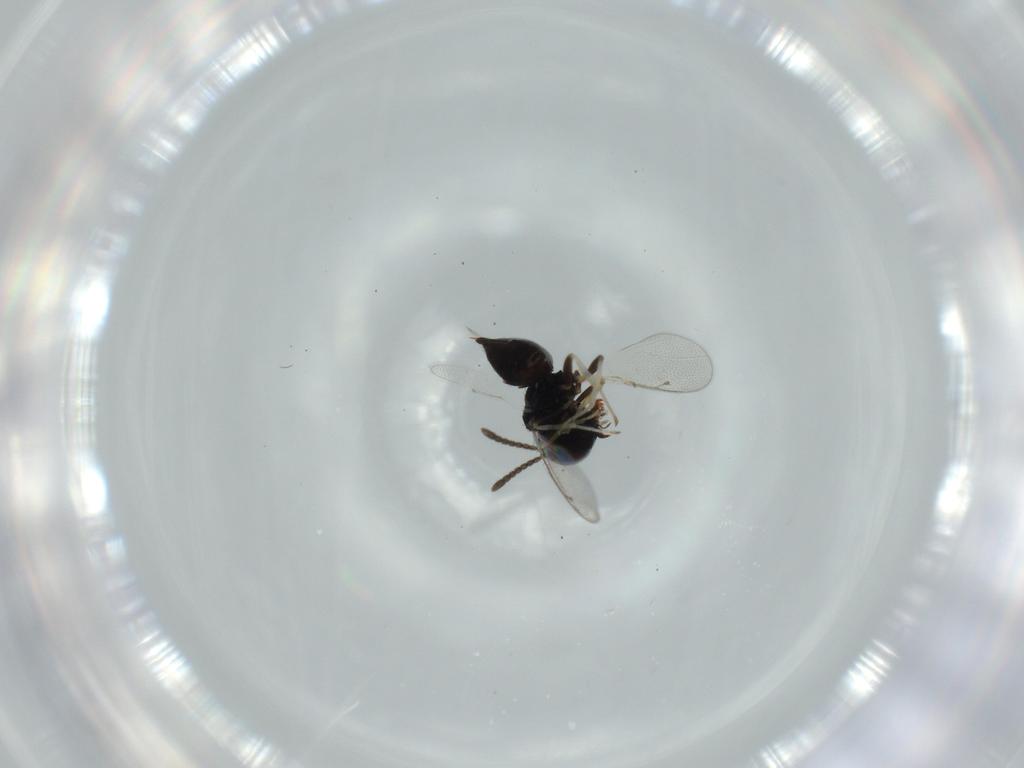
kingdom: Animalia
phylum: Arthropoda
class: Insecta
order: Hymenoptera
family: Pteromalidae
